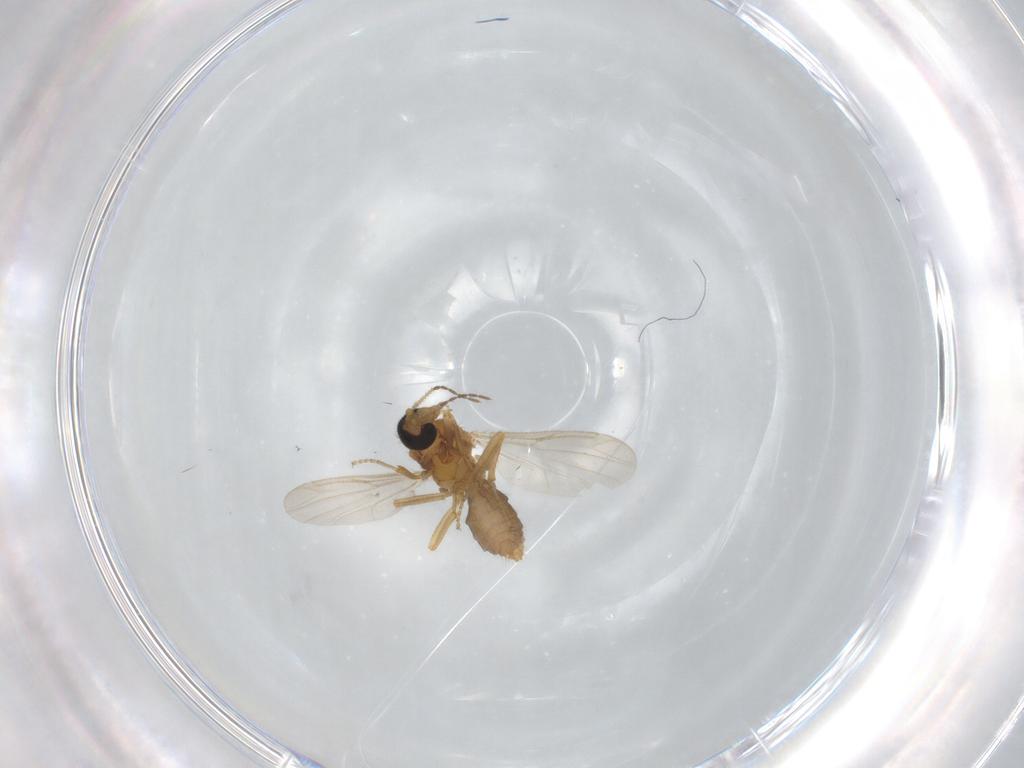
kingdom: Animalia
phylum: Arthropoda
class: Insecta
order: Diptera
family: Ceratopogonidae
